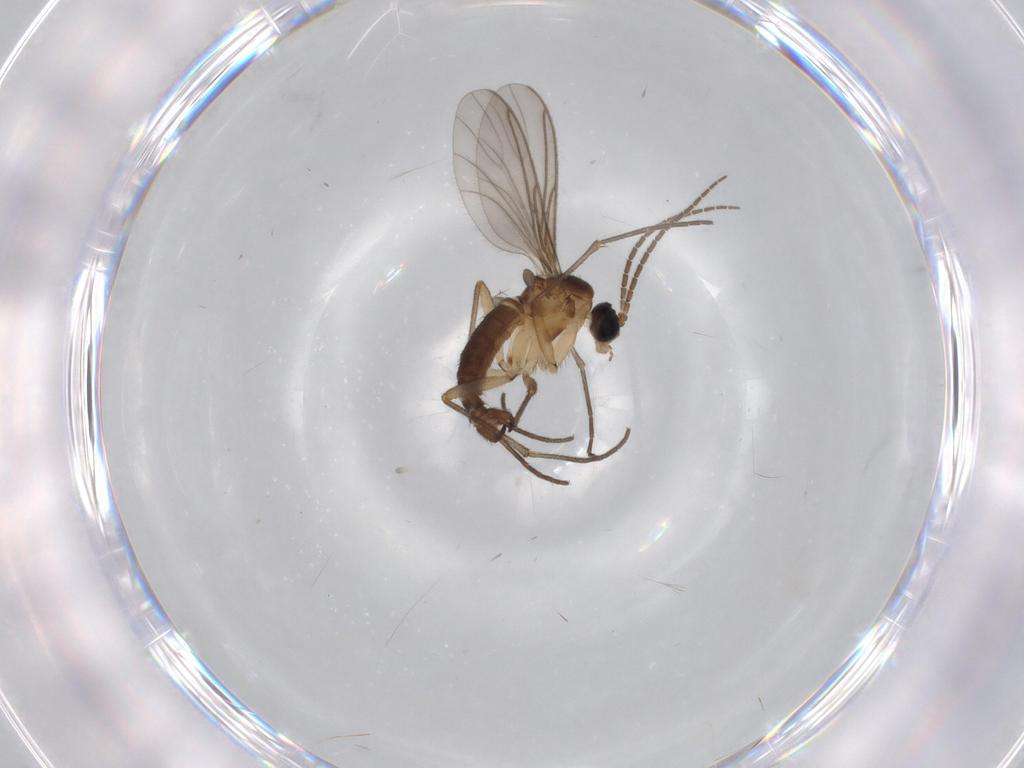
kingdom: Animalia
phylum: Arthropoda
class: Insecta
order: Diptera
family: Sciaridae
